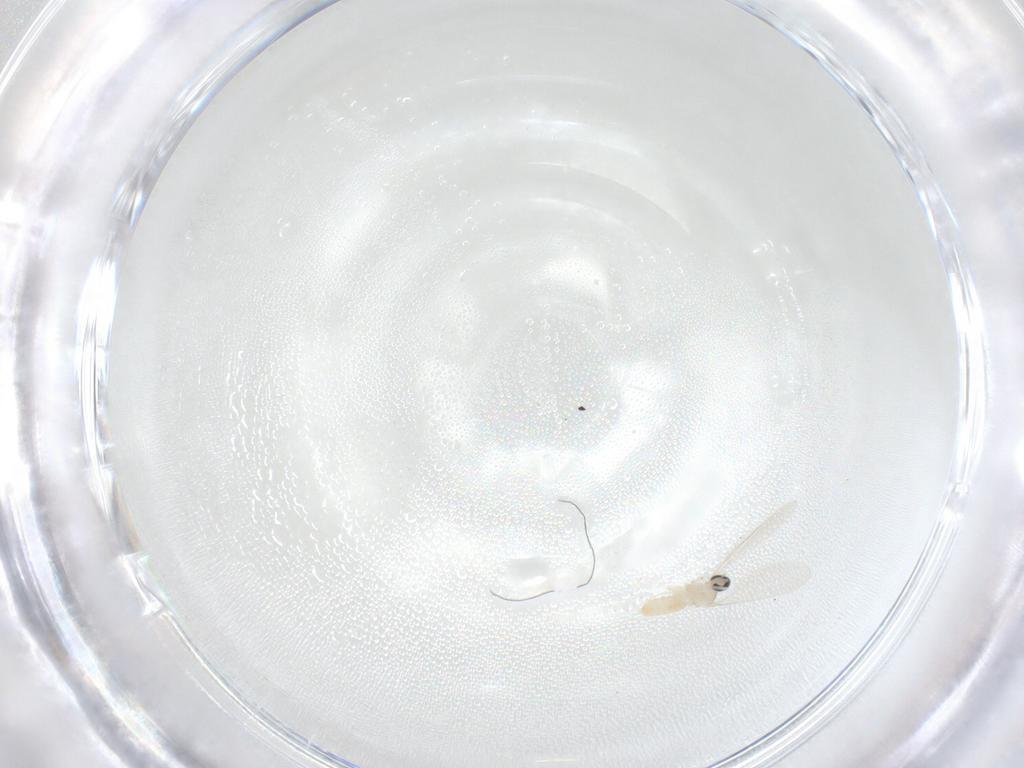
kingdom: Animalia
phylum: Arthropoda
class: Insecta
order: Diptera
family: Cecidomyiidae
